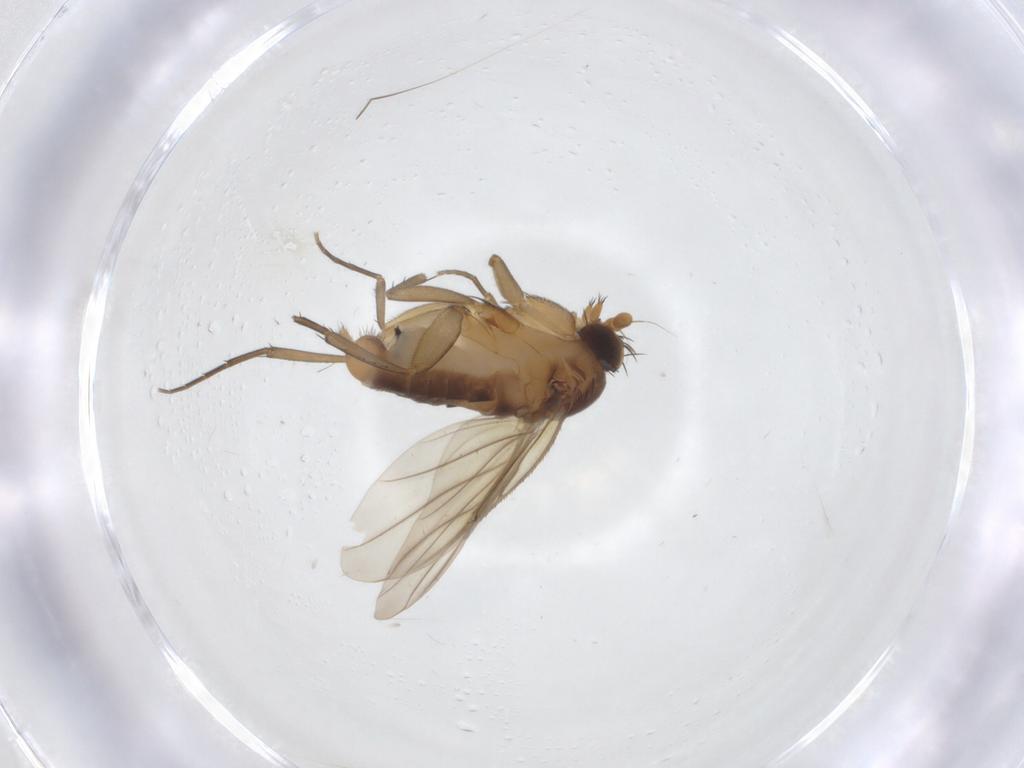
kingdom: Animalia
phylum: Arthropoda
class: Insecta
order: Diptera
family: Phoridae
